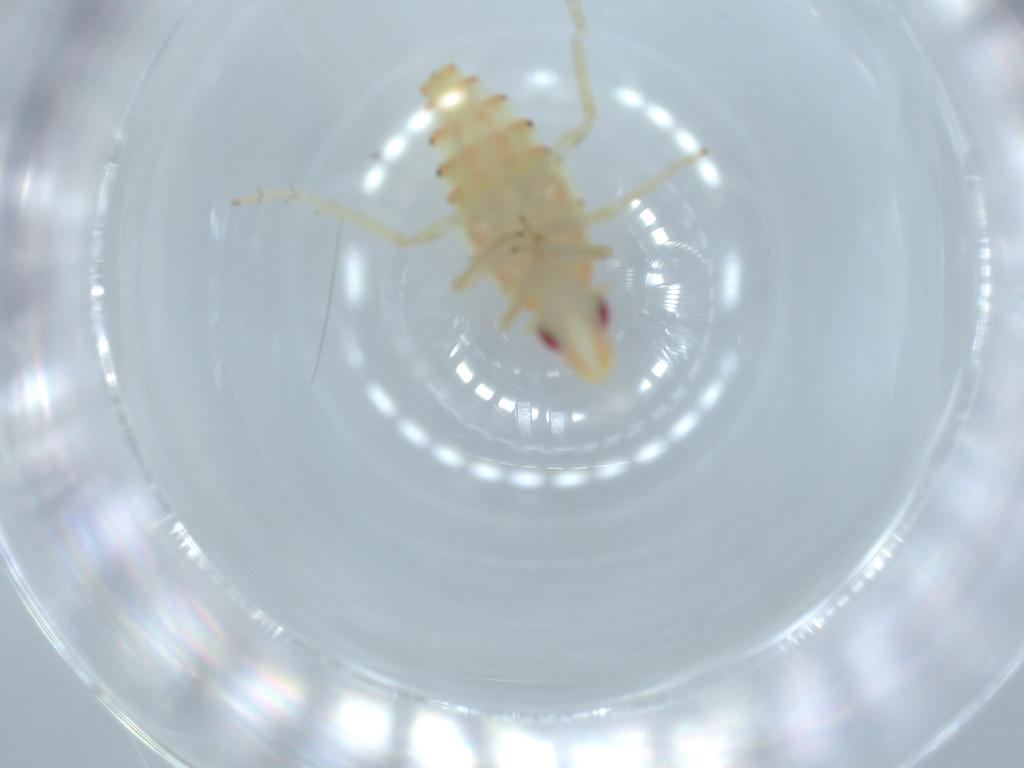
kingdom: Animalia
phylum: Arthropoda
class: Insecta
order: Hemiptera
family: Tropiduchidae
